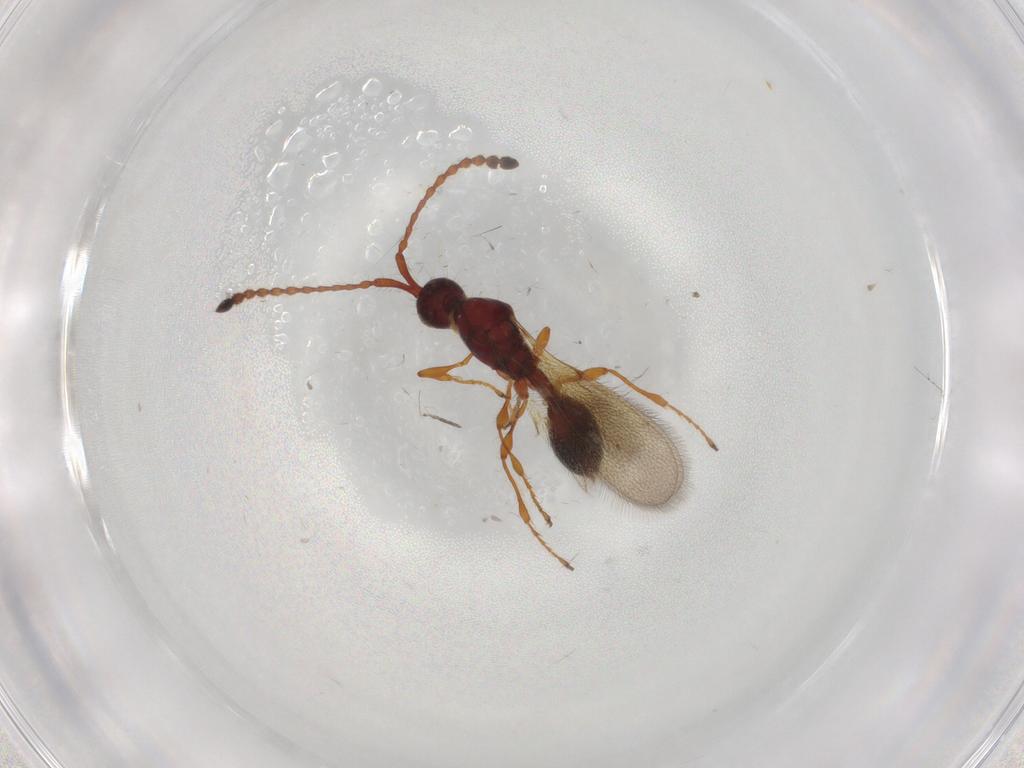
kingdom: Animalia
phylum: Arthropoda
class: Insecta
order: Hymenoptera
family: Diapriidae
